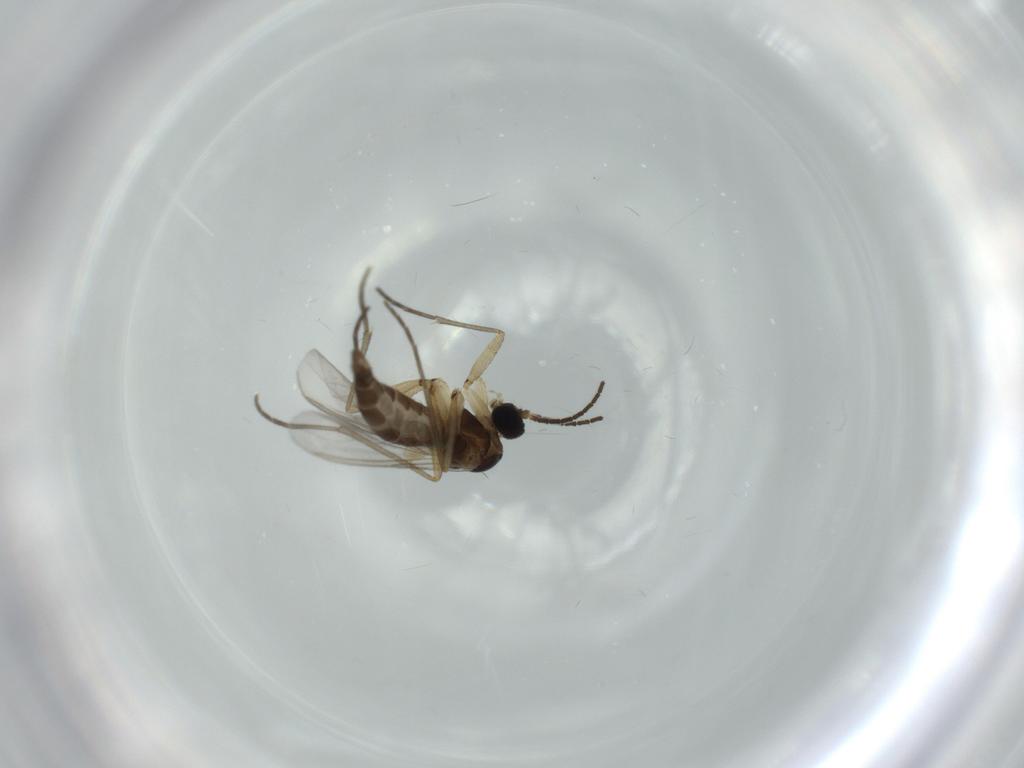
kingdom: Animalia
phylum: Arthropoda
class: Insecta
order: Diptera
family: Sciaridae
